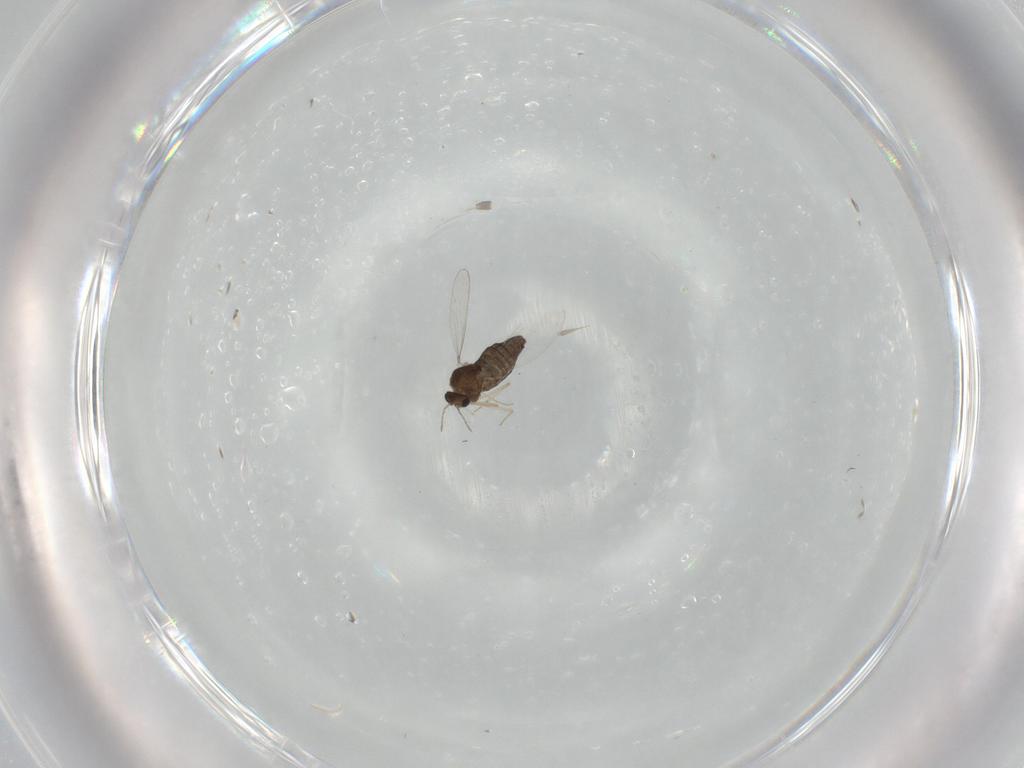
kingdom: Animalia
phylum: Arthropoda
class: Insecta
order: Diptera
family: Chironomidae
